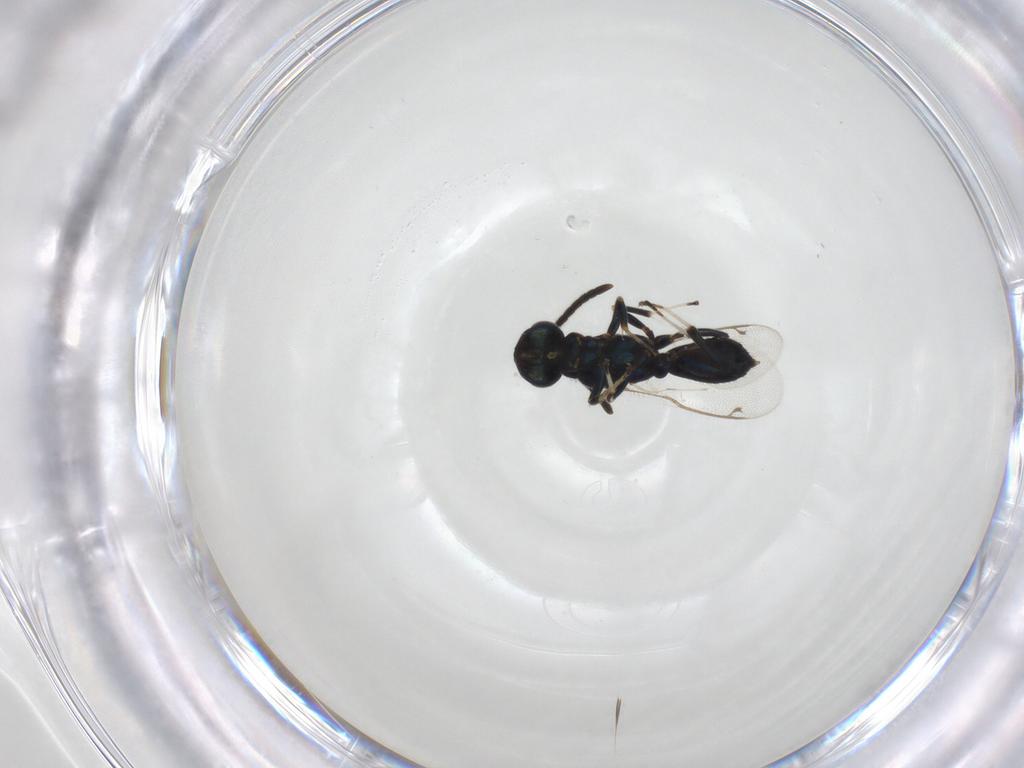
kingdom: Animalia
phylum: Arthropoda
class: Insecta
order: Hymenoptera
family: Eupelmidae
